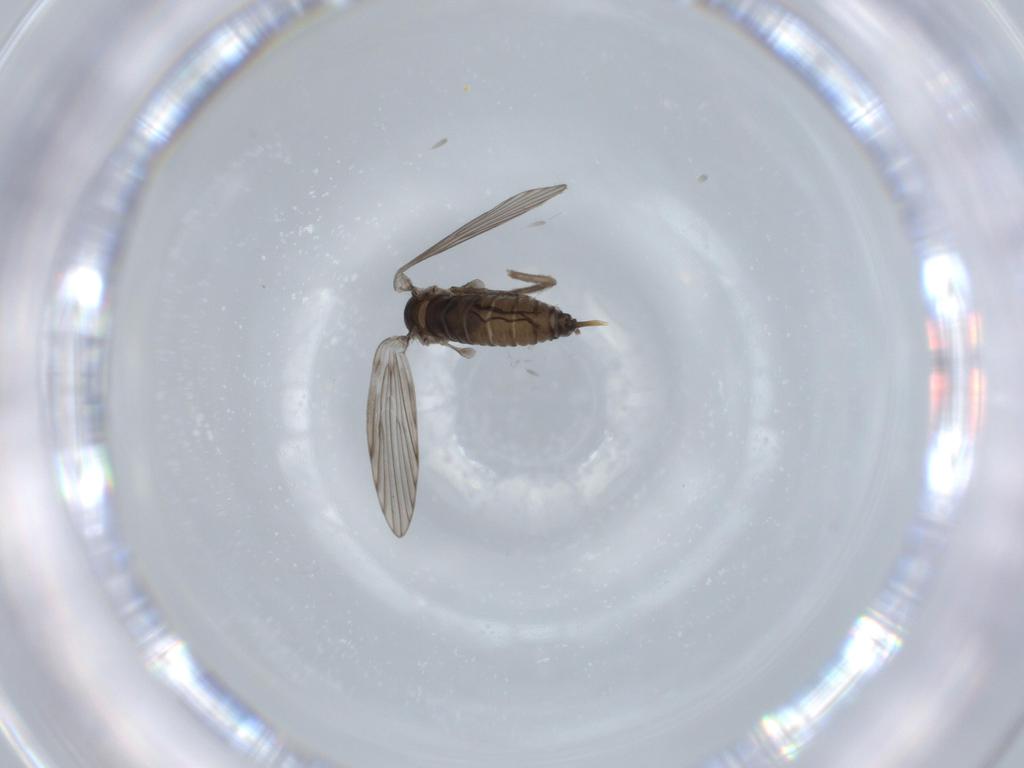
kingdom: Animalia
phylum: Arthropoda
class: Insecta
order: Diptera
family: Psychodidae
